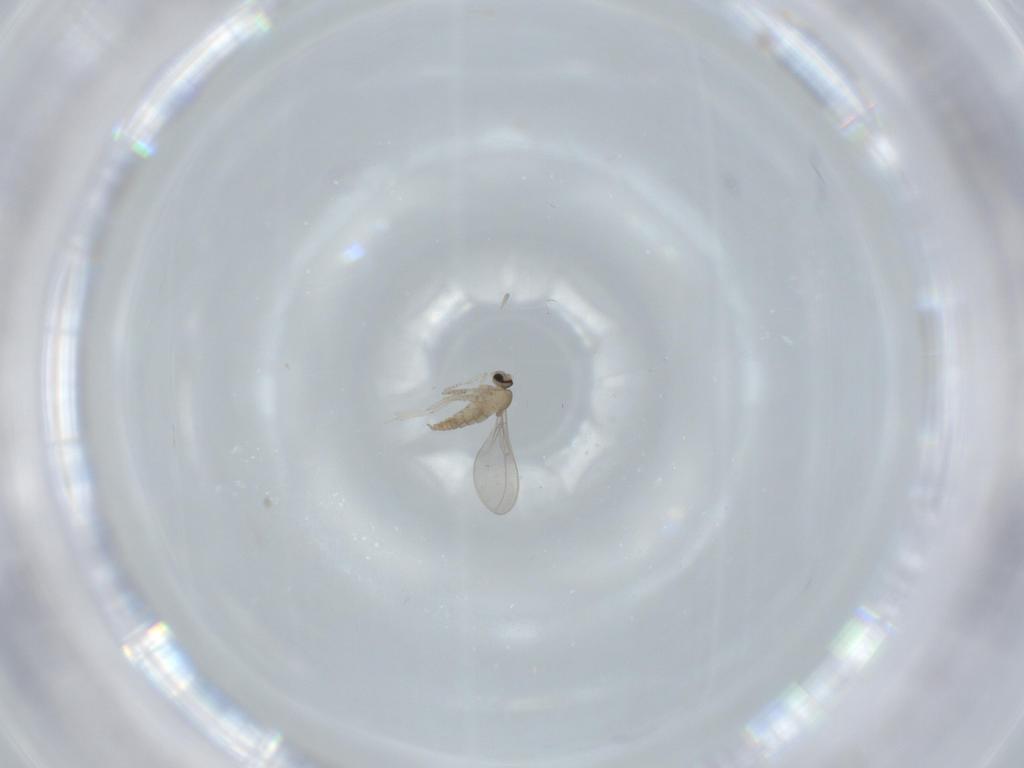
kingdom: Animalia
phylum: Arthropoda
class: Insecta
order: Diptera
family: Cecidomyiidae
